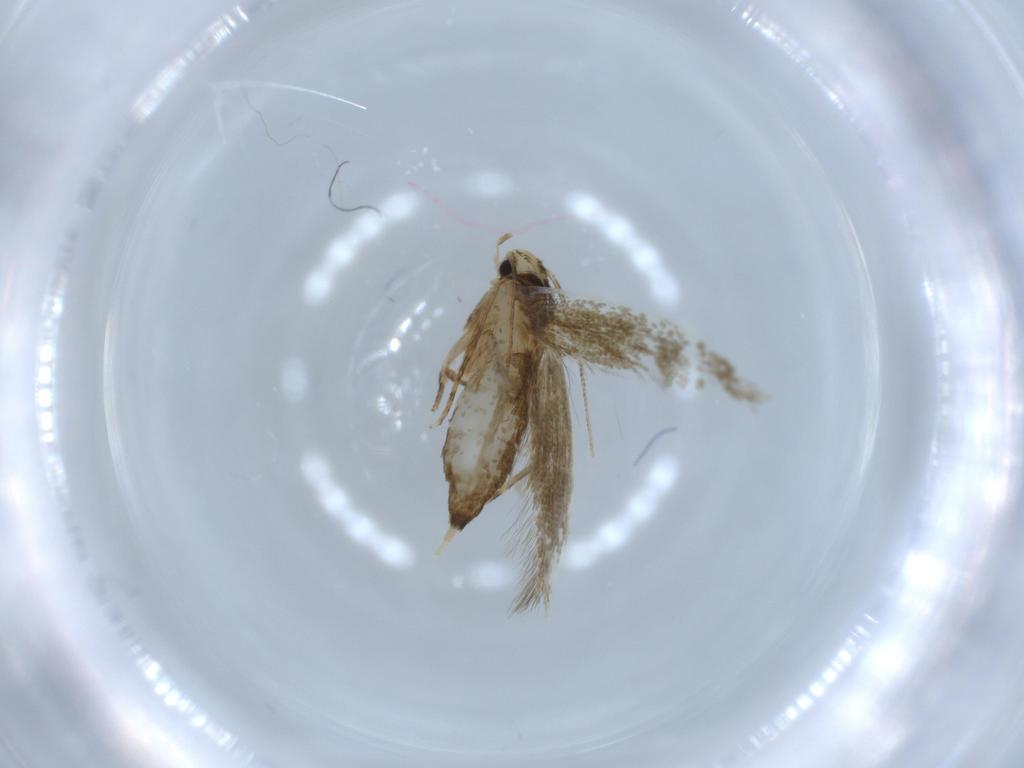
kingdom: Animalia
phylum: Arthropoda
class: Insecta
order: Lepidoptera
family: Tineidae
